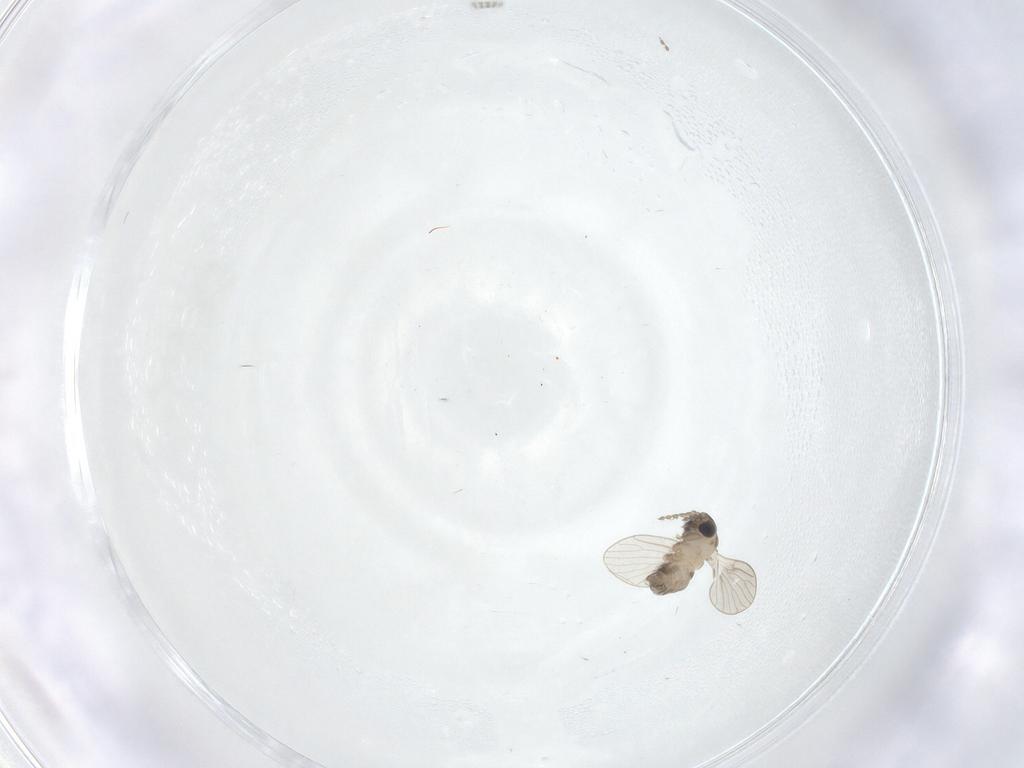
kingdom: Animalia
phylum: Arthropoda
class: Insecta
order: Diptera
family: Psychodidae
